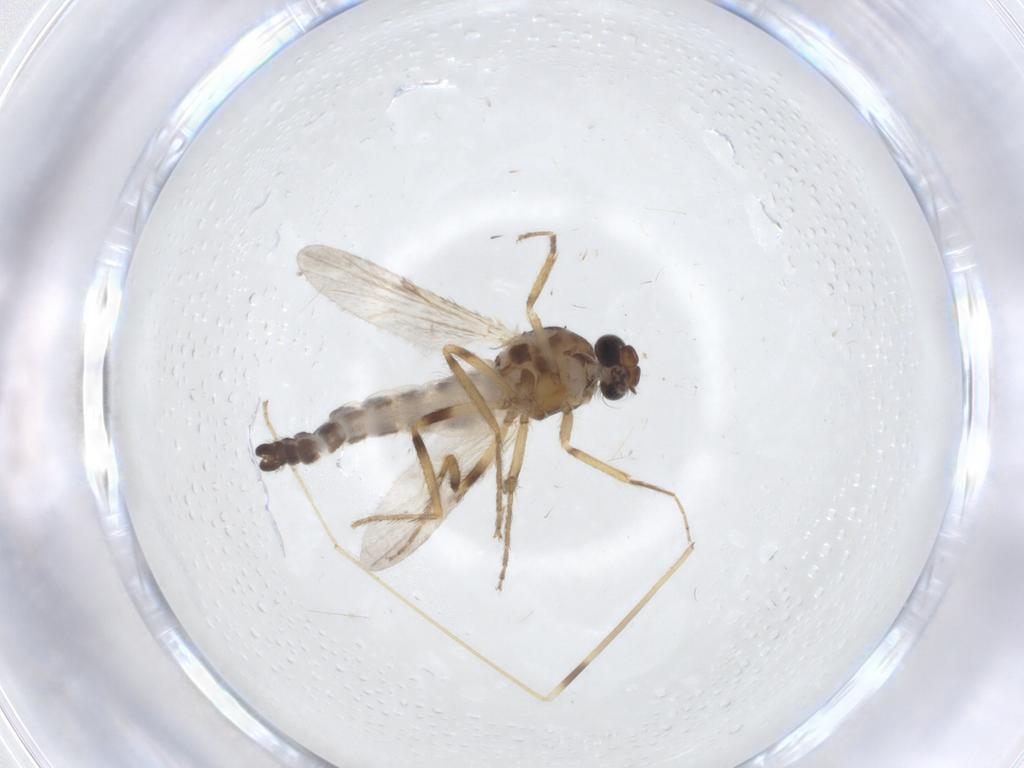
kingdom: Animalia
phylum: Arthropoda
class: Insecta
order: Diptera
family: Ceratopogonidae
